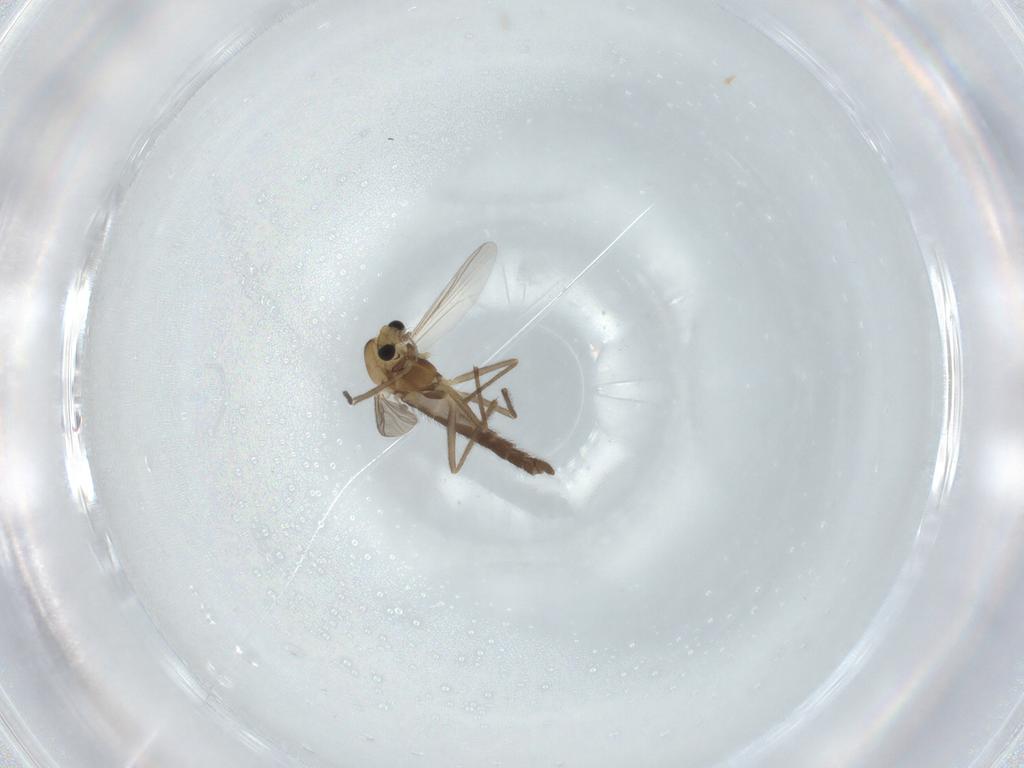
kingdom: Animalia
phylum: Arthropoda
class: Insecta
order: Diptera
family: Chironomidae
